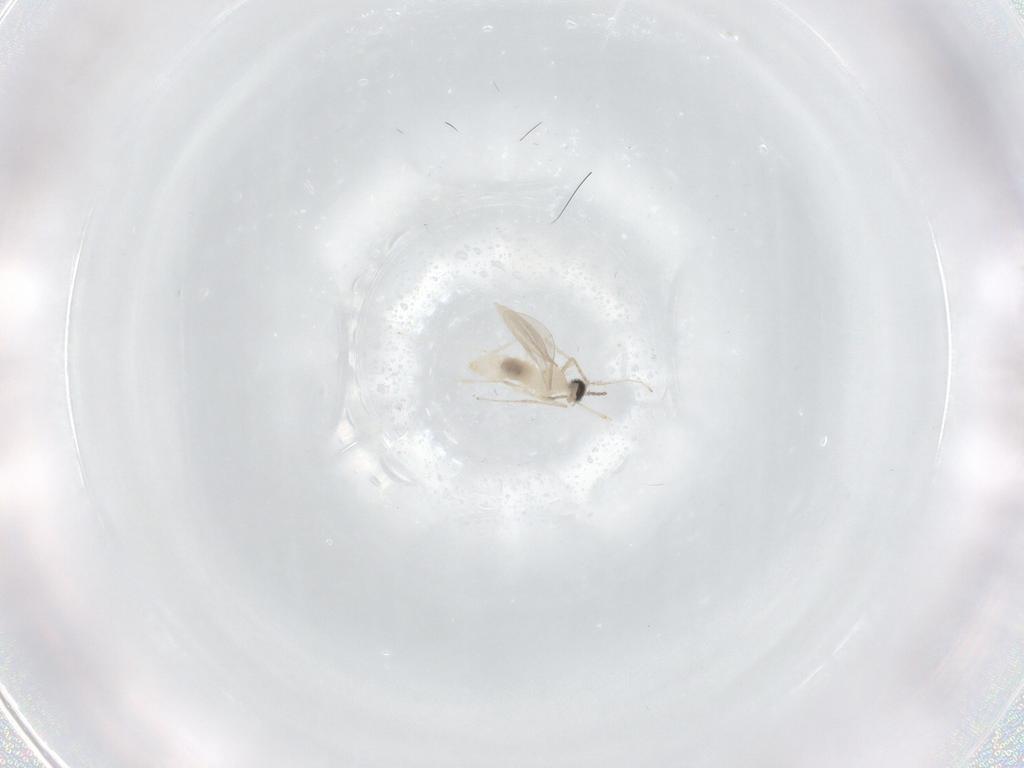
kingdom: Animalia
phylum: Arthropoda
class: Insecta
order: Diptera
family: Cecidomyiidae
